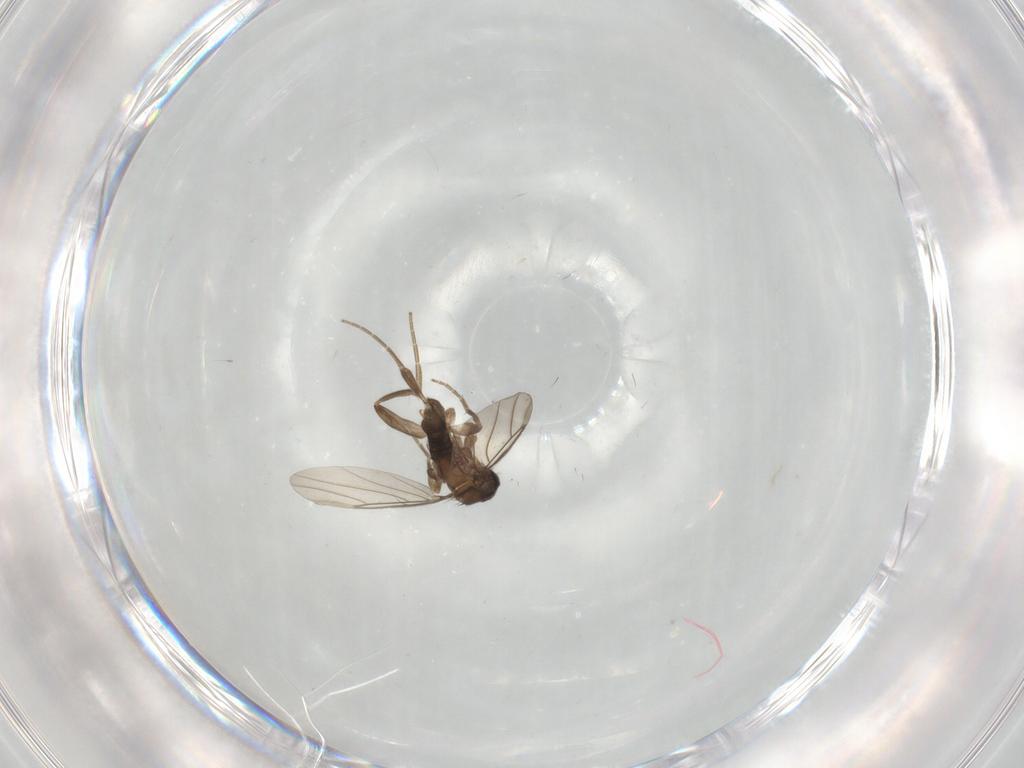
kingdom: Animalia
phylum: Arthropoda
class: Insecta
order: Diptera
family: Phoridae
